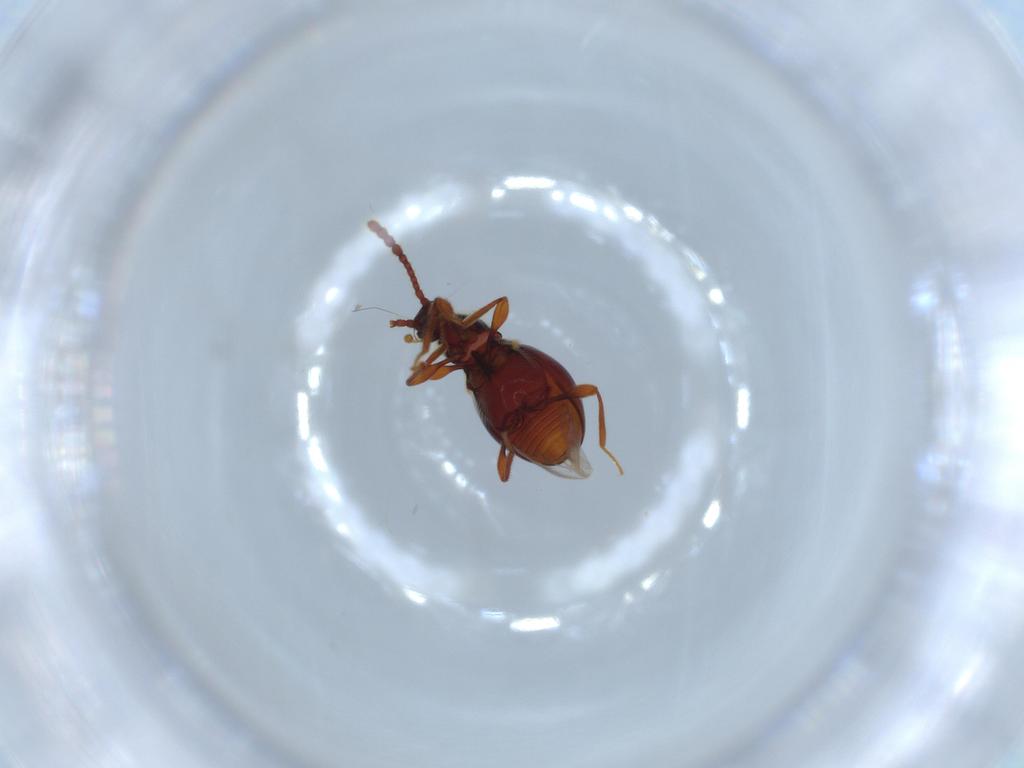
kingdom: Animalia
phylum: Arthropoda
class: Insecta
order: Coleoptera
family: Staphylinidae
